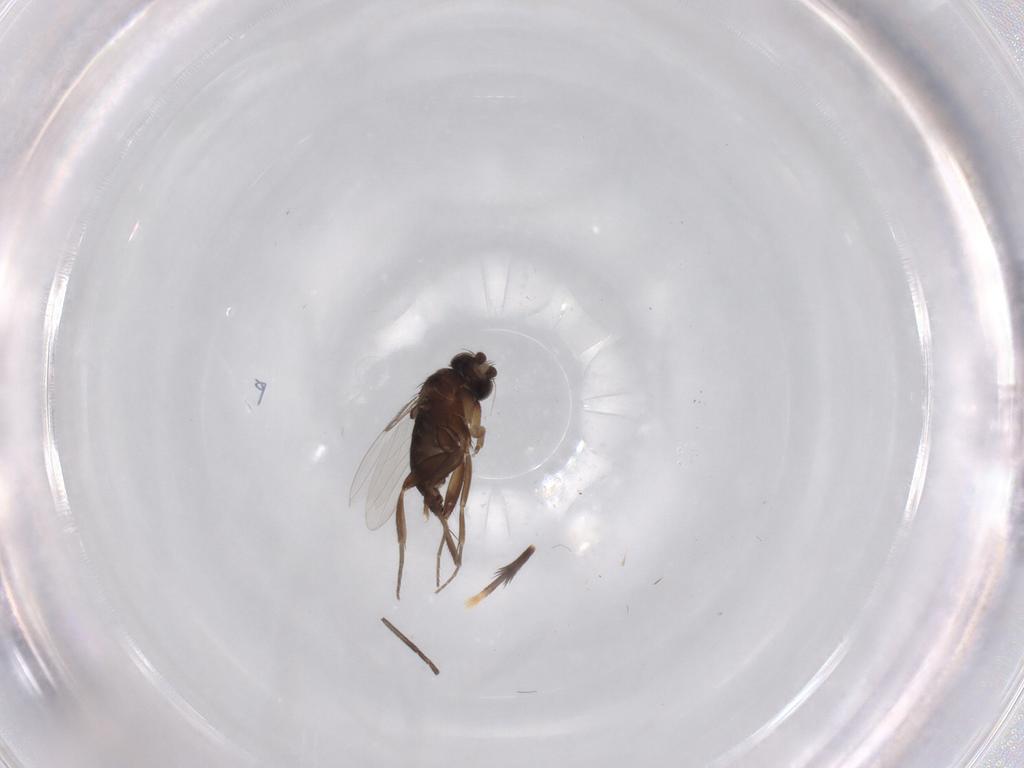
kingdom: Animalia
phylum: Arthropoda
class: Insecta
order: Diptera
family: Phoridae
